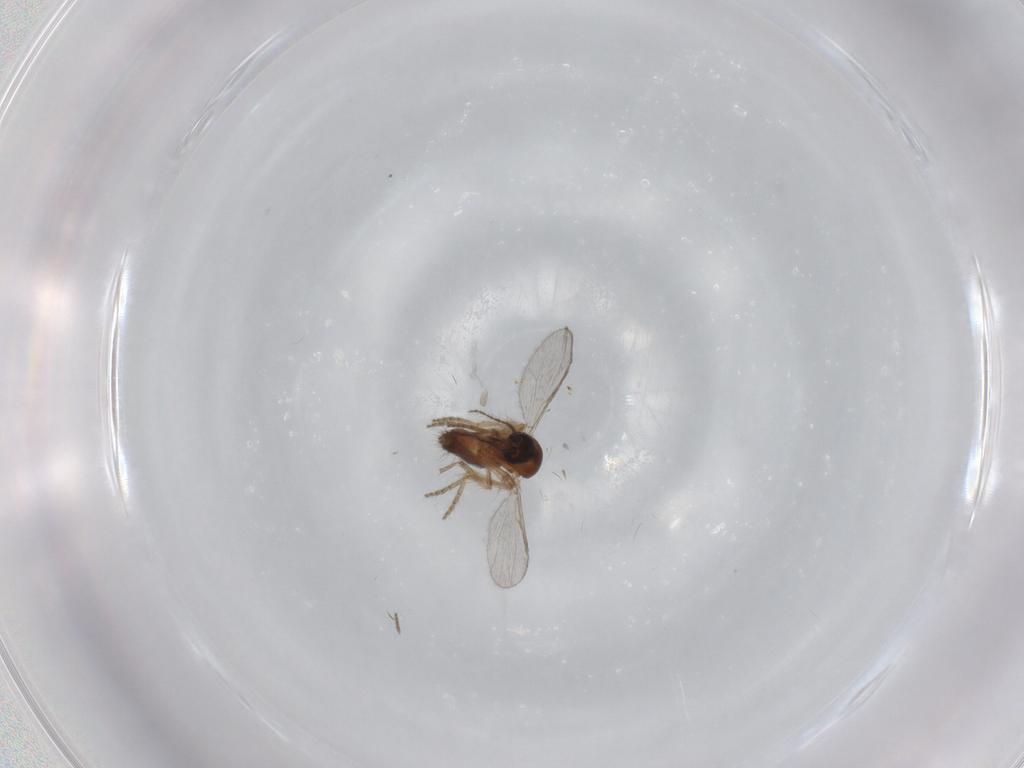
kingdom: Animalia
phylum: Arthropoda
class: Insecta
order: Diptera
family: Ceratopogonidae
